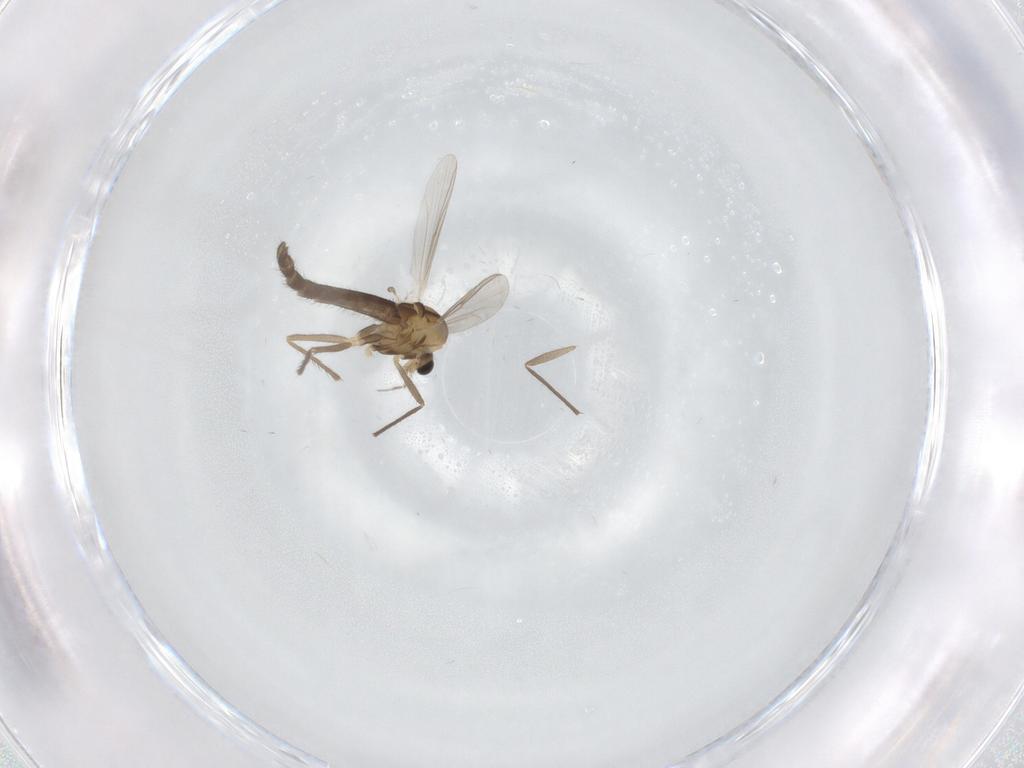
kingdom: Animalia
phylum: Arthropoda
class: Insecta
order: Diptera
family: Chironomidae
